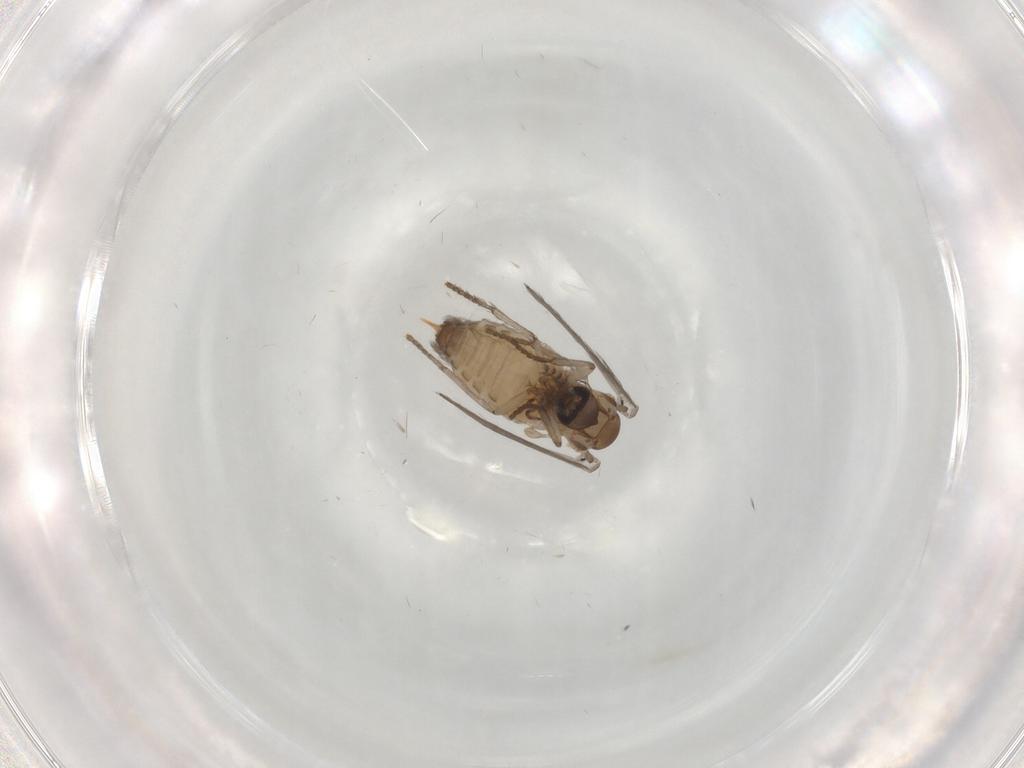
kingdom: Animalia
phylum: Arthropoda
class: Insecta
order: Diptera
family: Psychodidae
